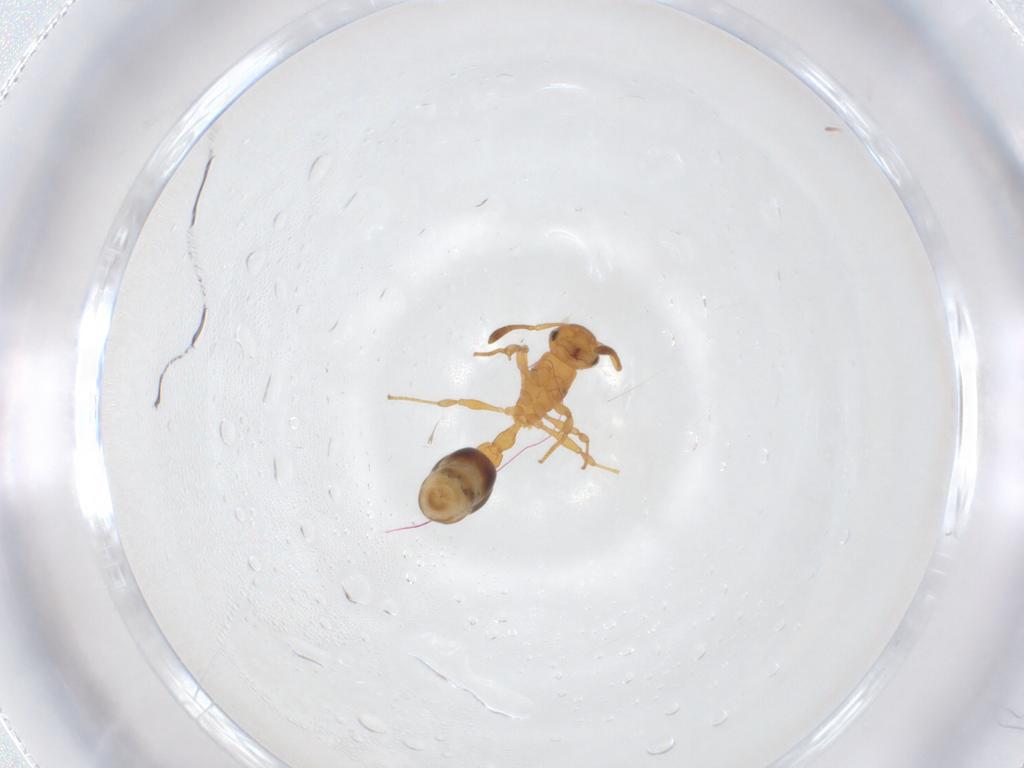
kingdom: Animalia
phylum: Arthropoda
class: Insecta
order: Hymenoptera
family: Formicidae
